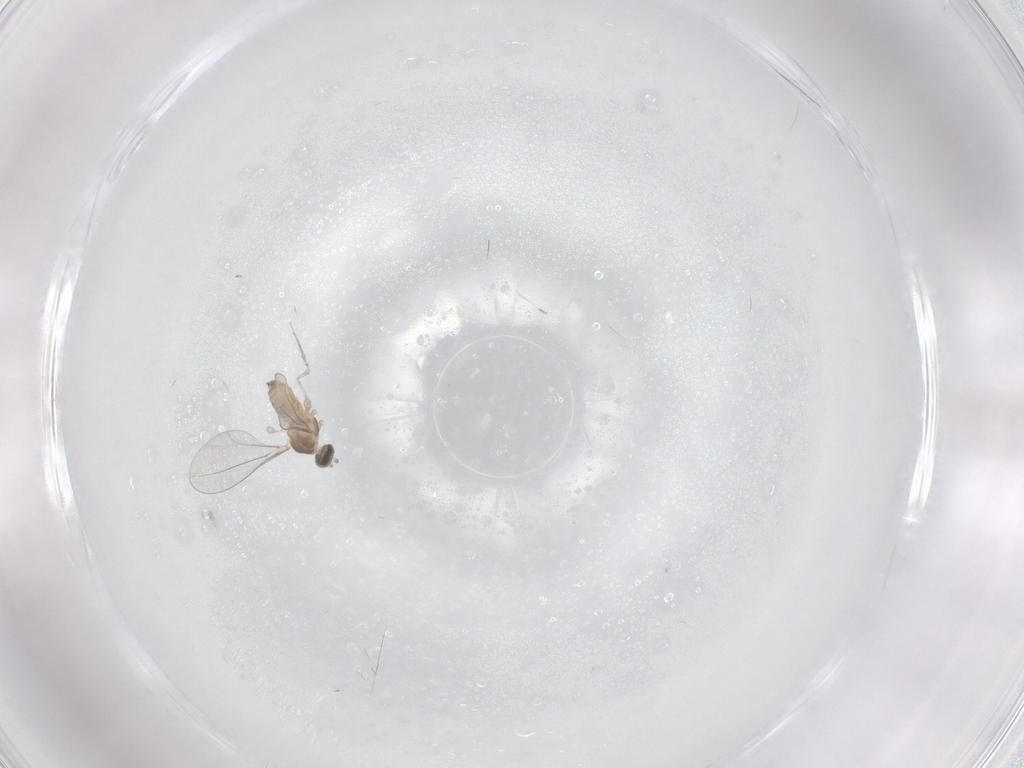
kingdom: Animalia
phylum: Arthropoda
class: Insecta
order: Diptera
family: Cecidomyiidae
